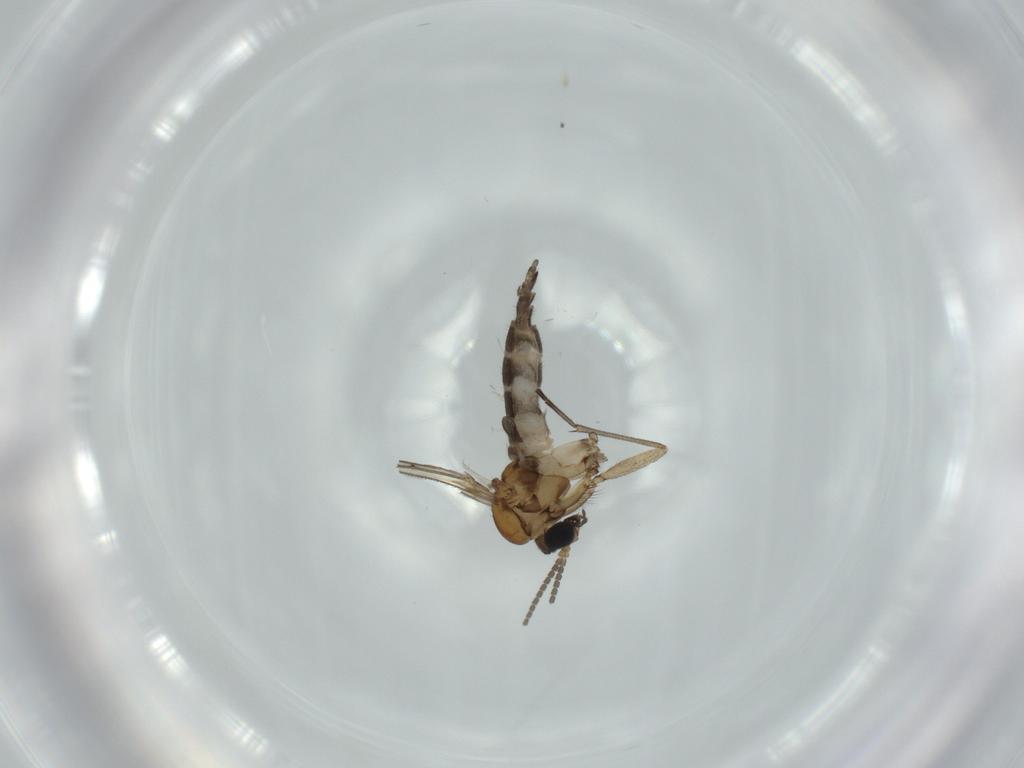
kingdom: Animalia
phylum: Arthropoda
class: Insecta
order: Diptera
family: Sciaridae
